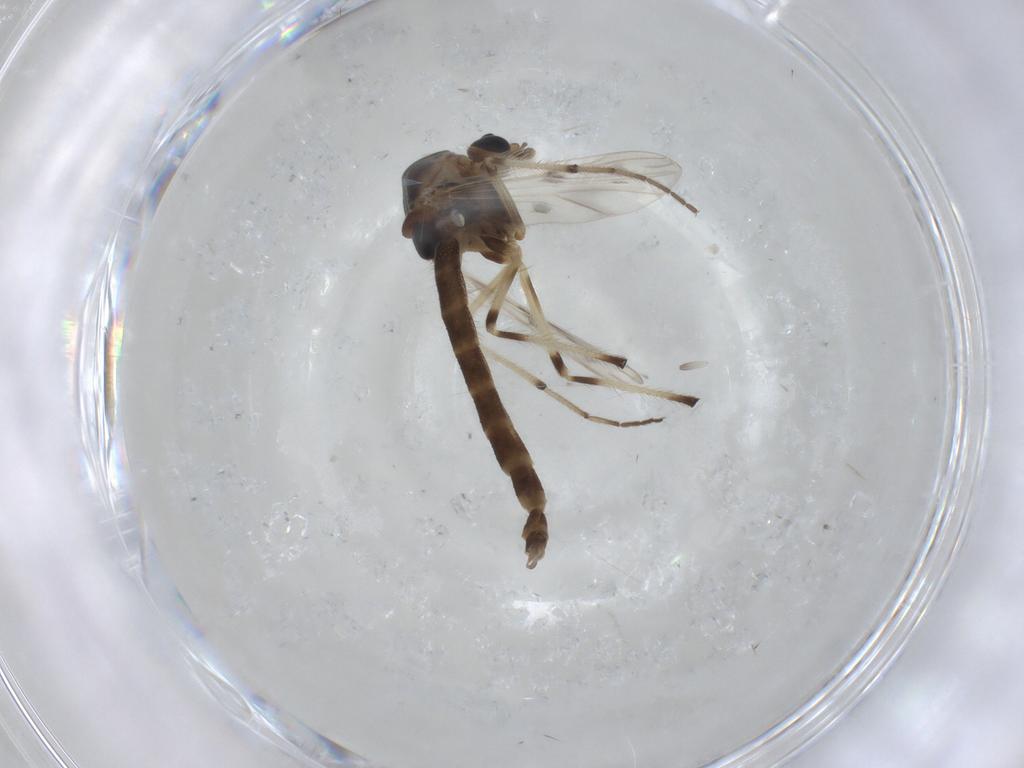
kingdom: Animalia
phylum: Arthropoda
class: Insecta
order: Diptera
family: Chironomidae
